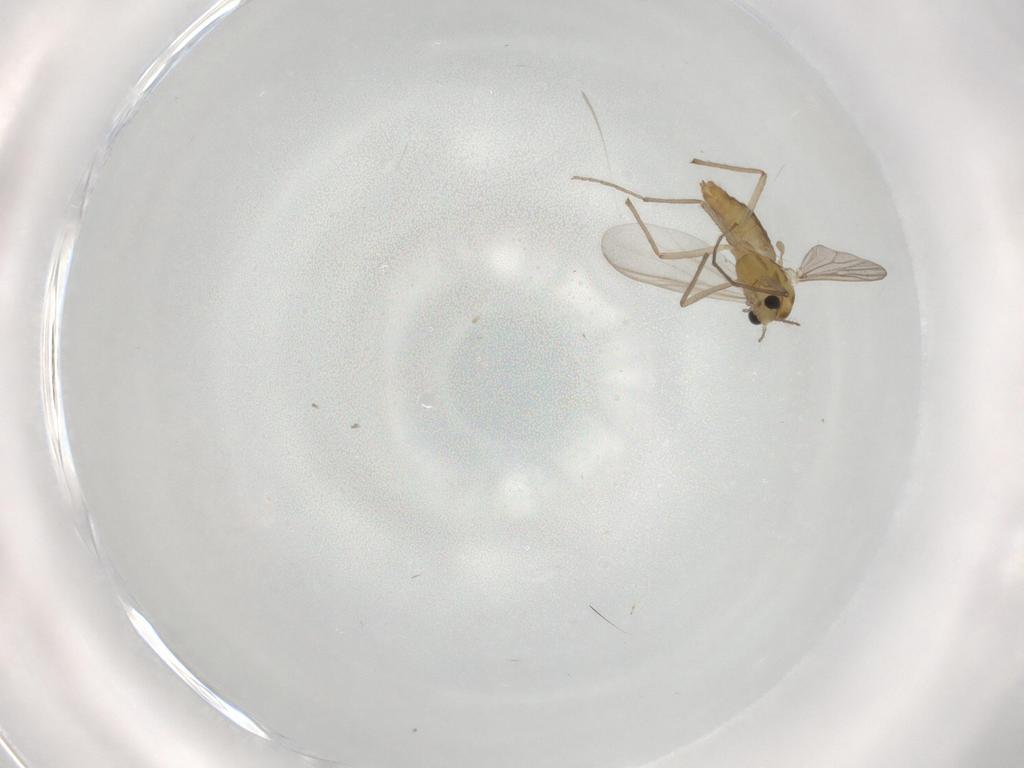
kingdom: Animalia
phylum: Arthropoda
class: Insecta
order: Diptera
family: Chironomidae
